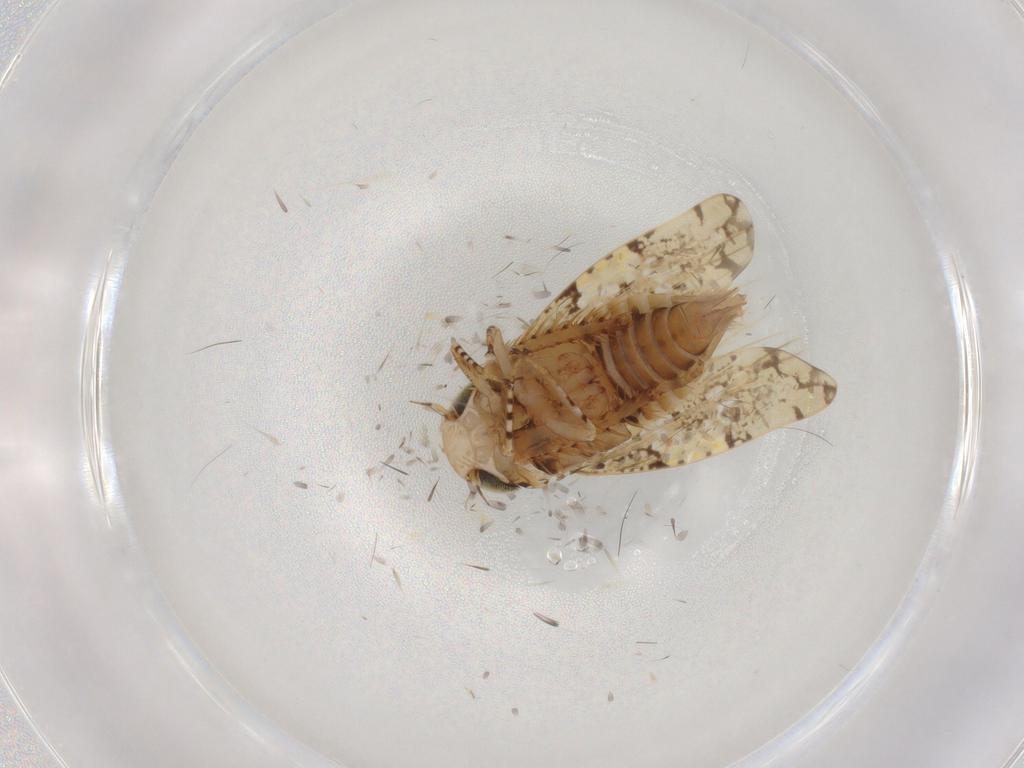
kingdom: Animalia
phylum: Arthropoda
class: Insecta
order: Hemiptera
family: Cicadellidae
